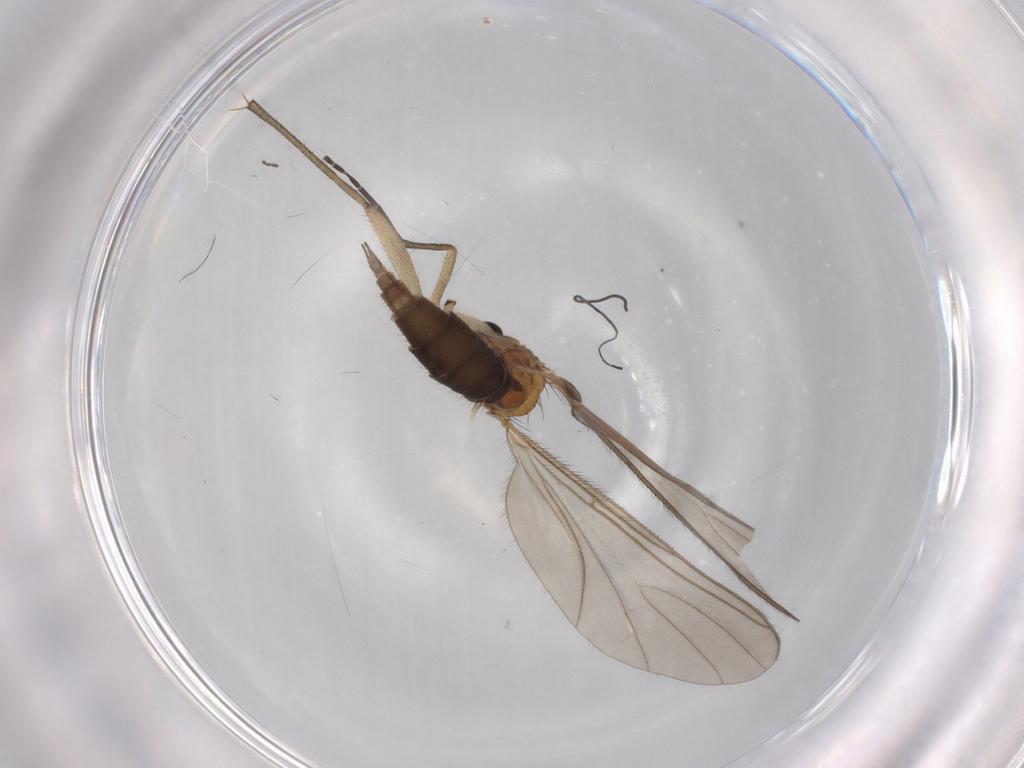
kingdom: Animalia
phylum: Arthropoda
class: Insecta
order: Diptera
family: Sciaridae
